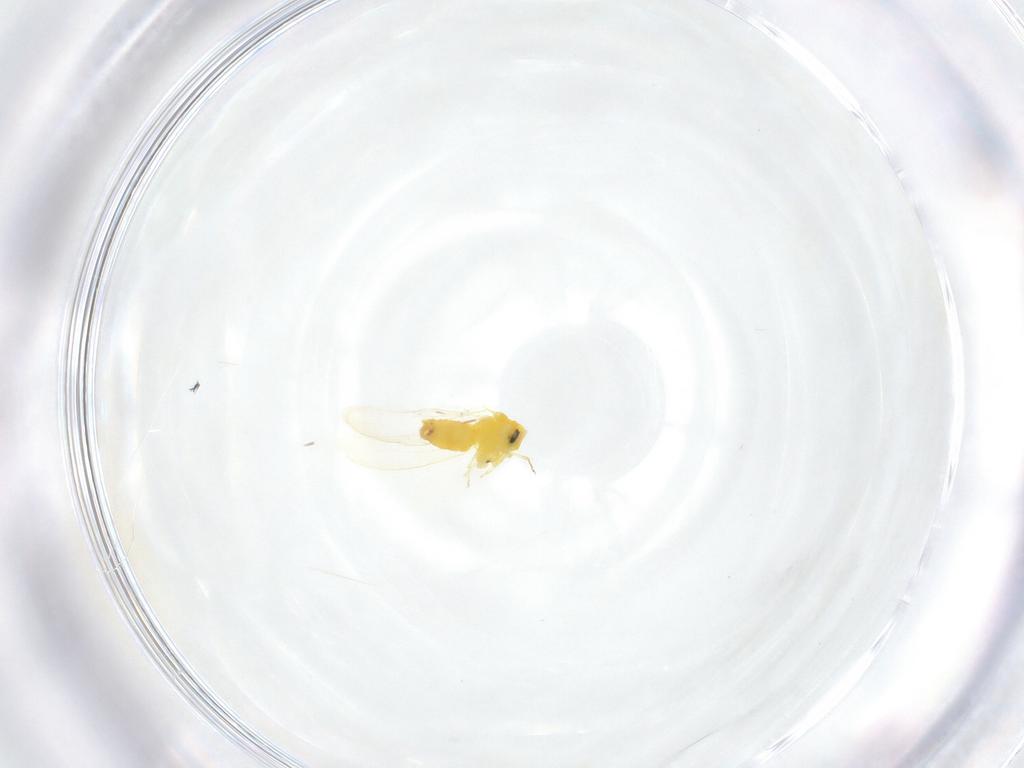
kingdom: Animalia
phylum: Arthropoda
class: Insecta
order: Hemiptera
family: Aleyrodidae
